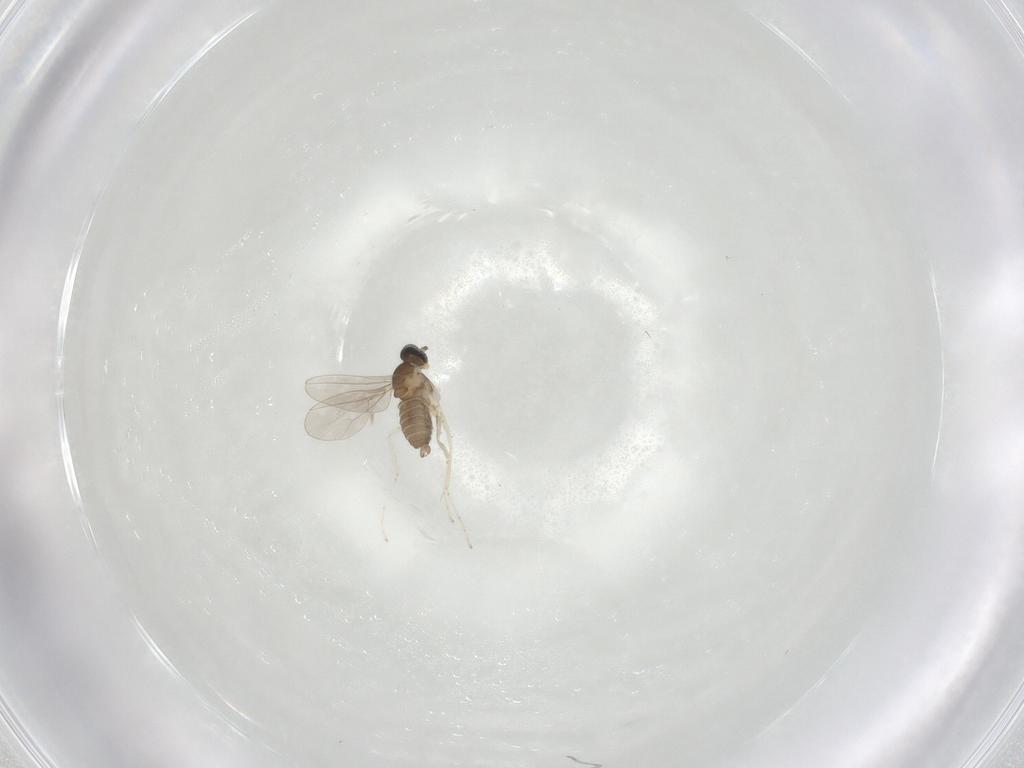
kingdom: Animalia
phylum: Arthropoda
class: Insecta
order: Diptera
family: Cecidomyiidae
